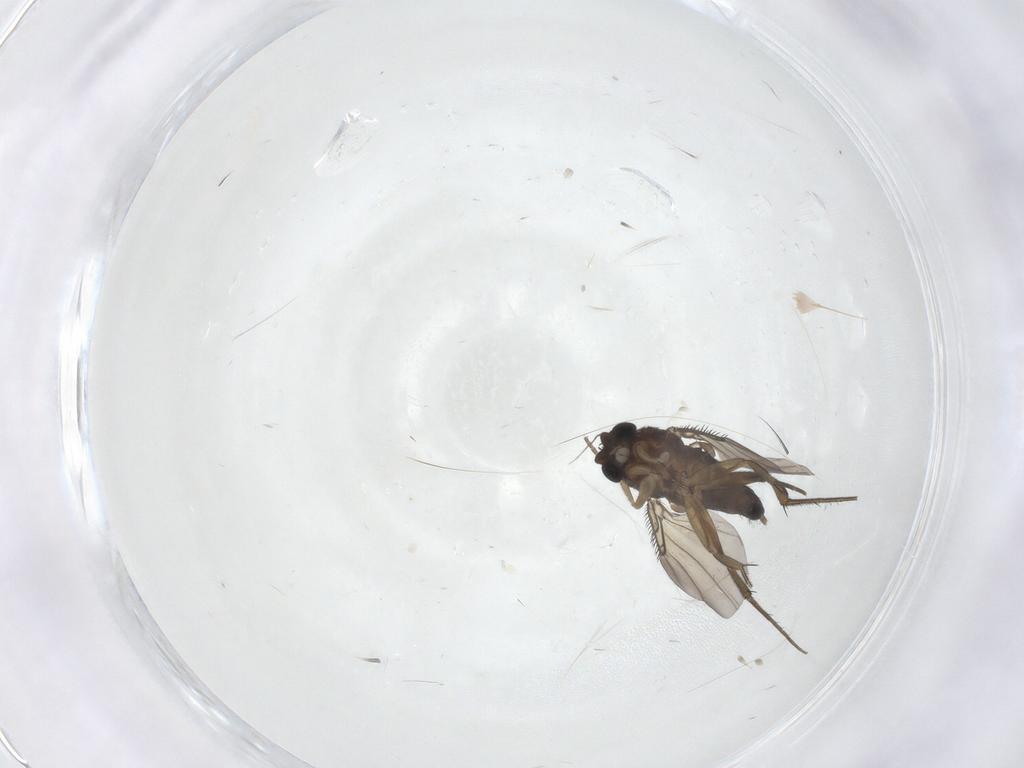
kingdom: Animalia
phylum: Arthropoda
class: Insecta
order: Diptera
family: Phoridae
